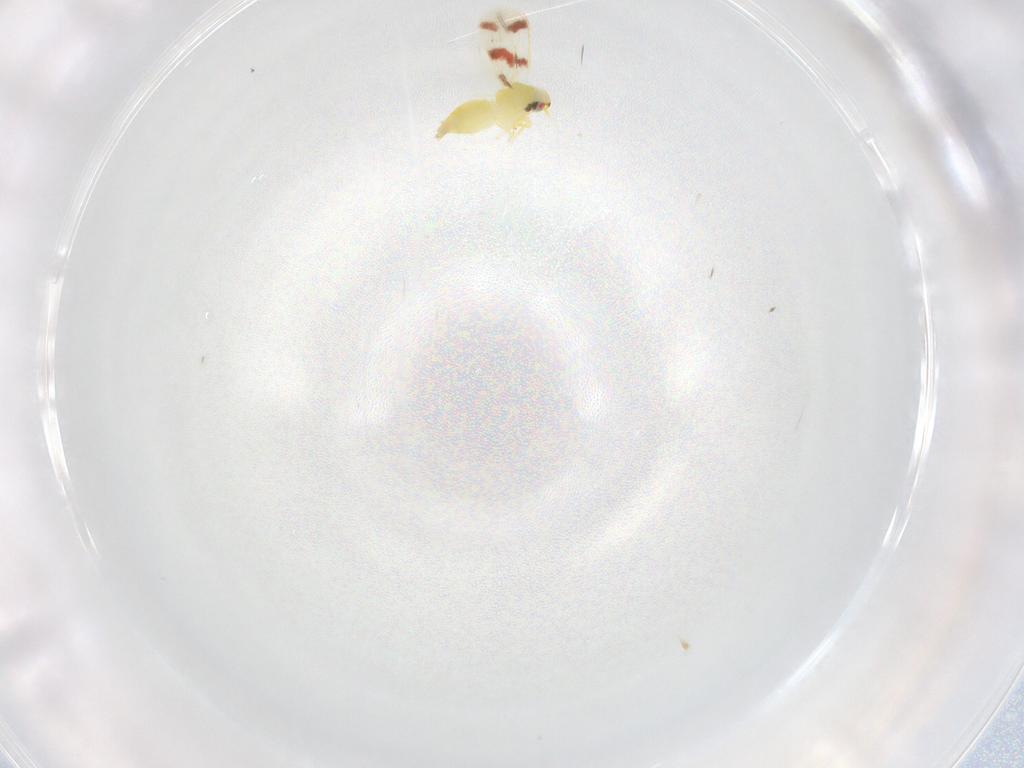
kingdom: Animalia
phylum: Arthropoda
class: Insecta
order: Hemiptera
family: Aleyrodidae
